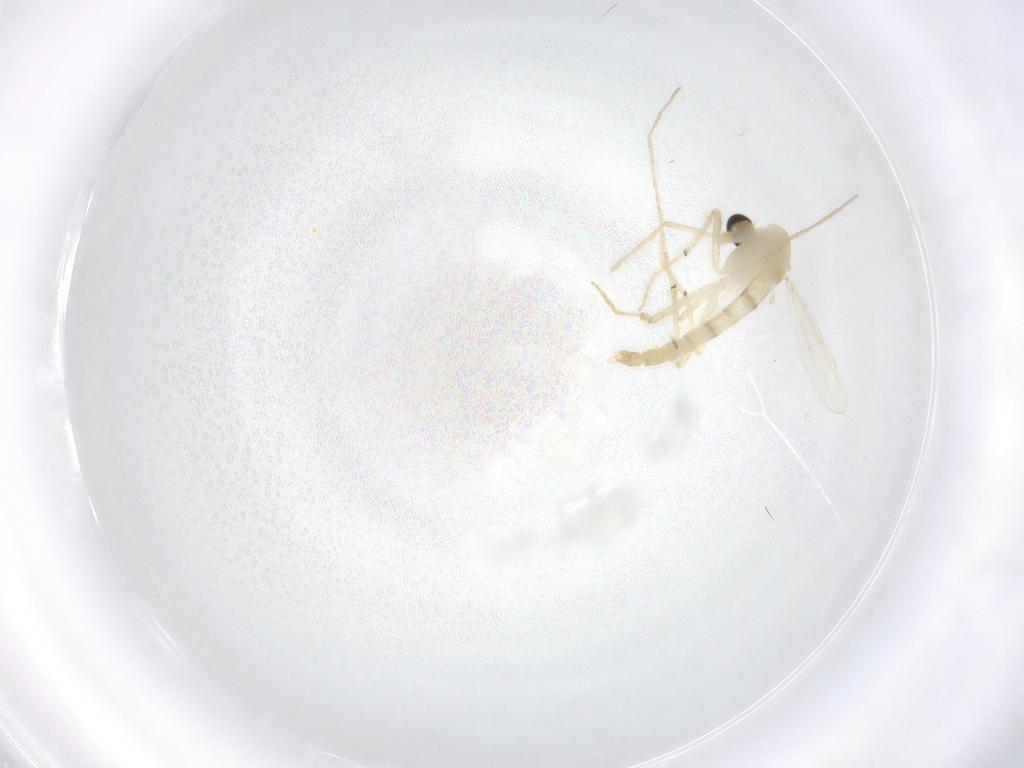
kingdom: Animalia
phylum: Arthropoda
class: Insecta
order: Diptera
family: Chironomidae
